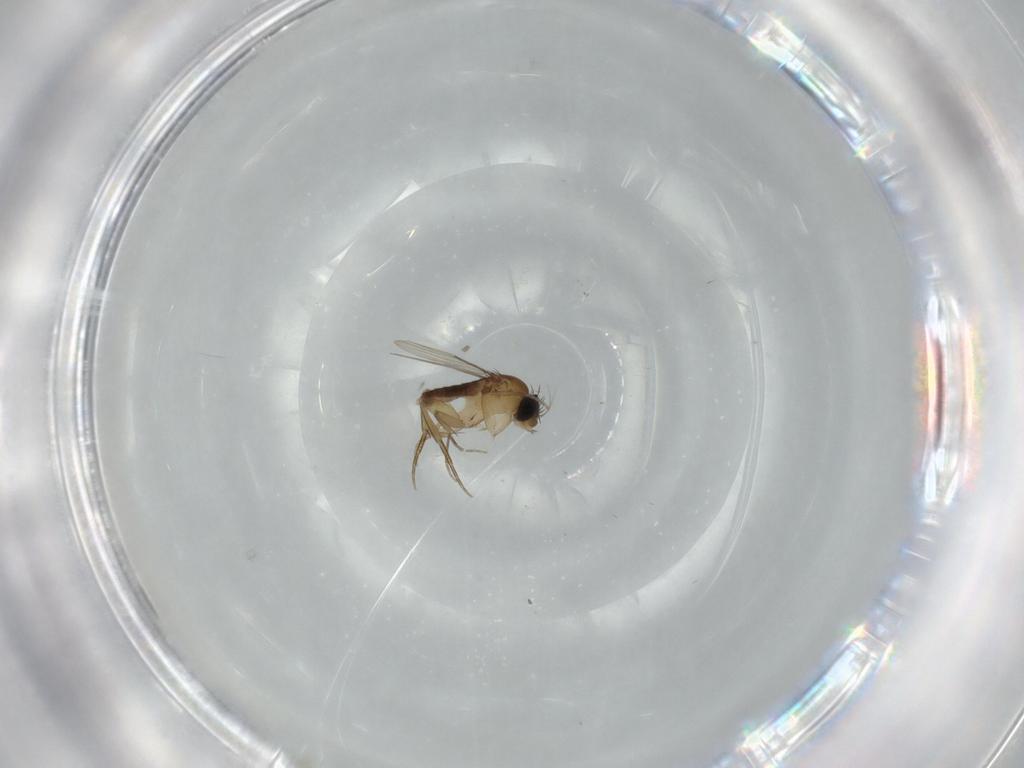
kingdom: Animalia
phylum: Arthropoda
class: Insecta
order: Diptera
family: Phoridae
